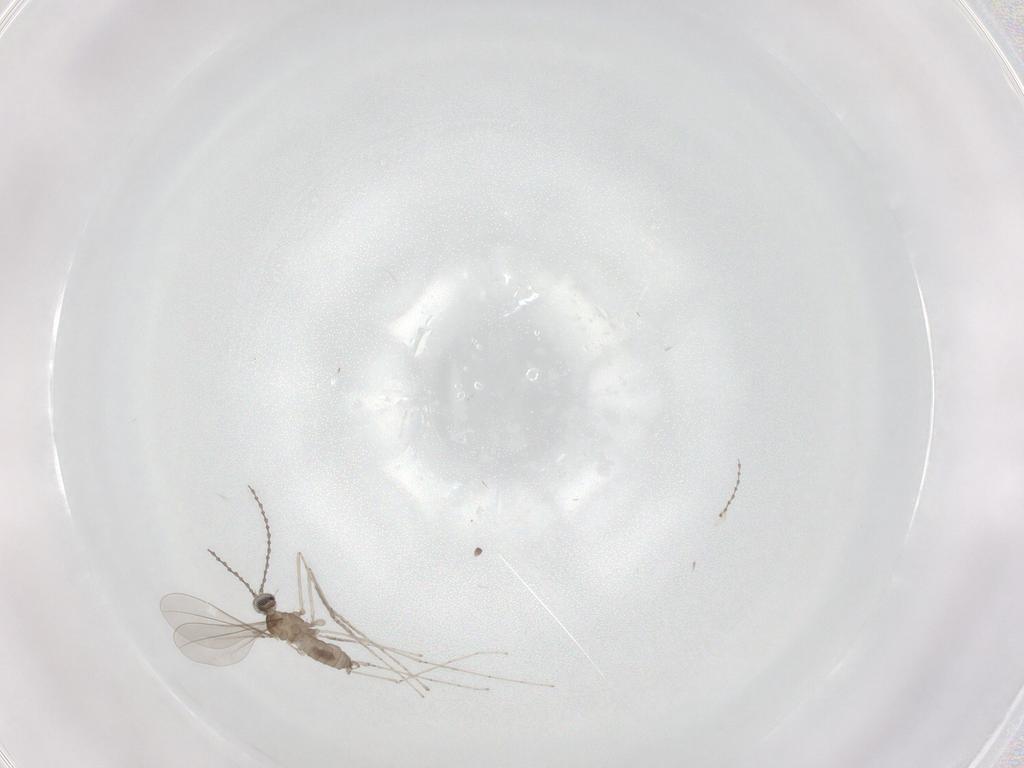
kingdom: Animalia
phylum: Arthropoda
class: Insecta
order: Diptera
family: Cecidomyiidae
